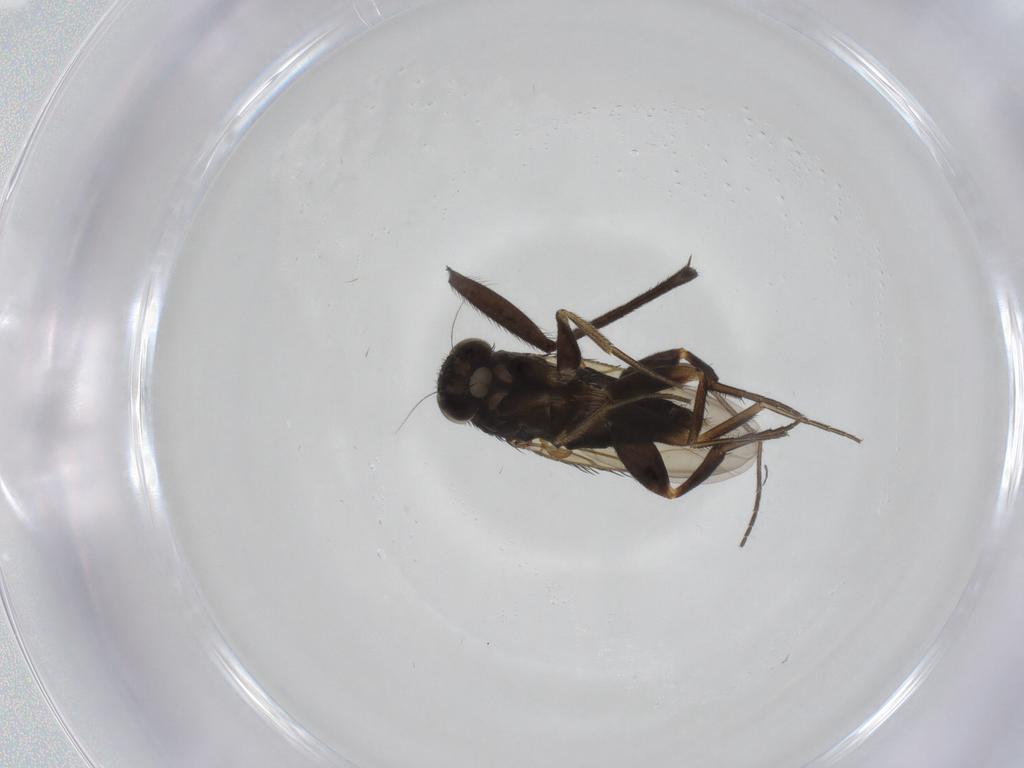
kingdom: Animalia
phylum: Arthropoda
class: Insecta
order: Diptera
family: Phoridae
